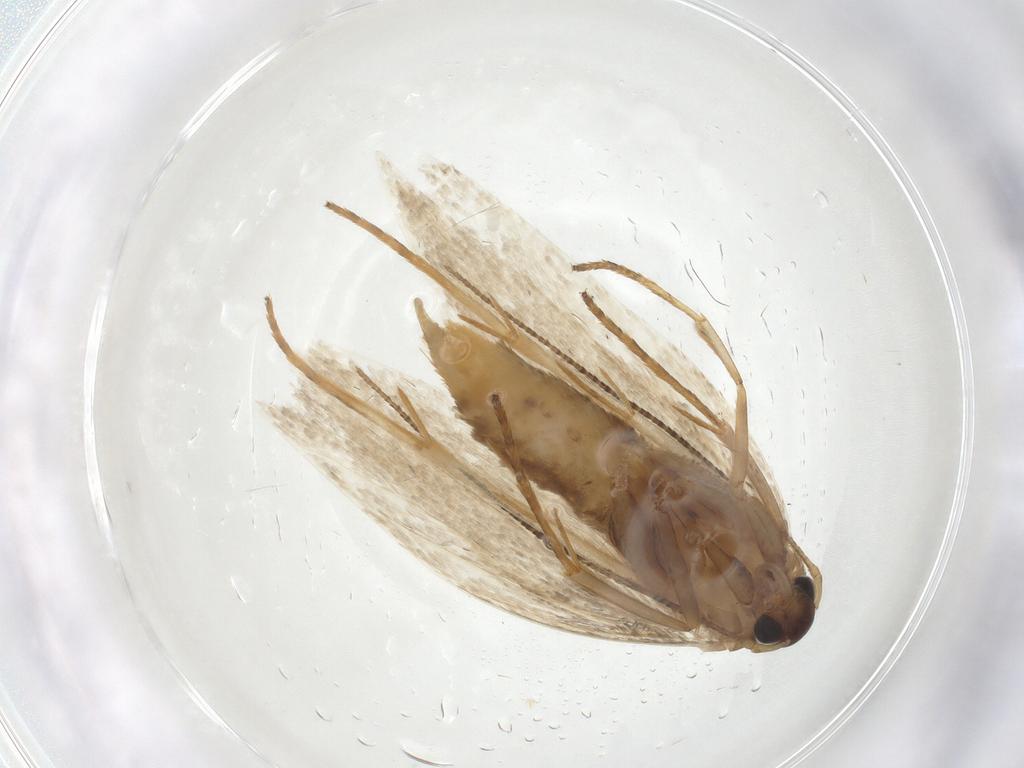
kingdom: Animalia
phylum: Arthropoda
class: Insecta
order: Lepidoptera
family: Erebidae
